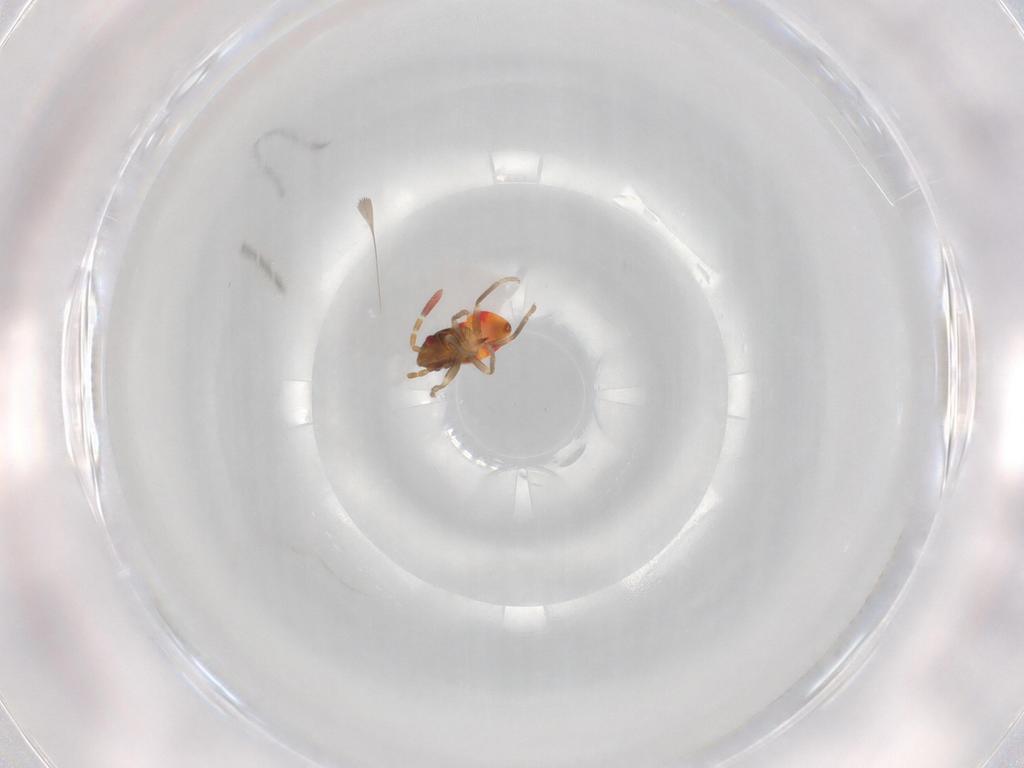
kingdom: Animalia
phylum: Arthropoda
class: Insecta
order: Hemiptera
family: Rhyparochromidae
